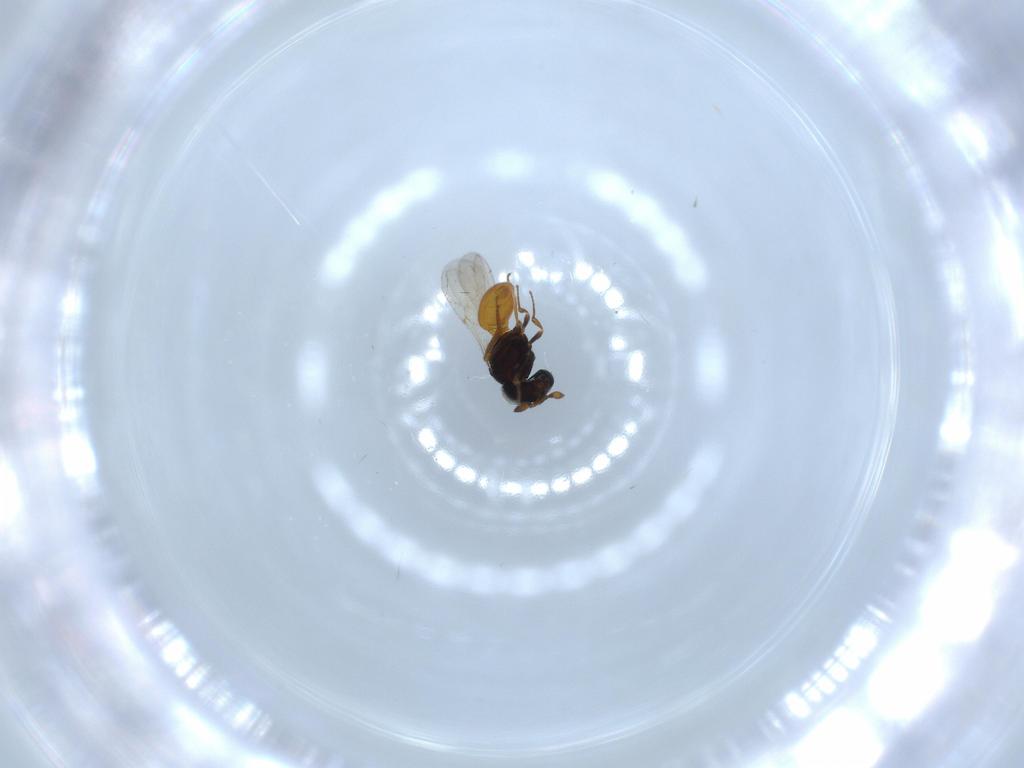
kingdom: Animalia
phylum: Arthropoda
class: Insecta
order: Hymenoptera
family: Scelionidae
